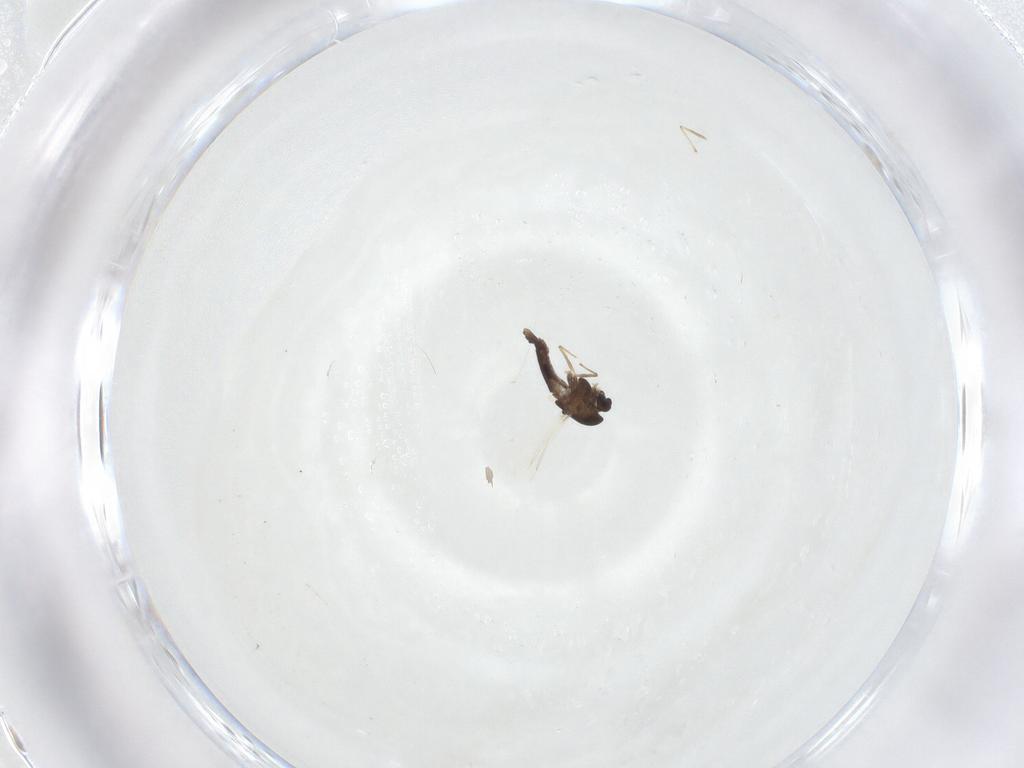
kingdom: Animalia
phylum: Arthropoda
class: Insecta
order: Diptera
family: Chironomidae
